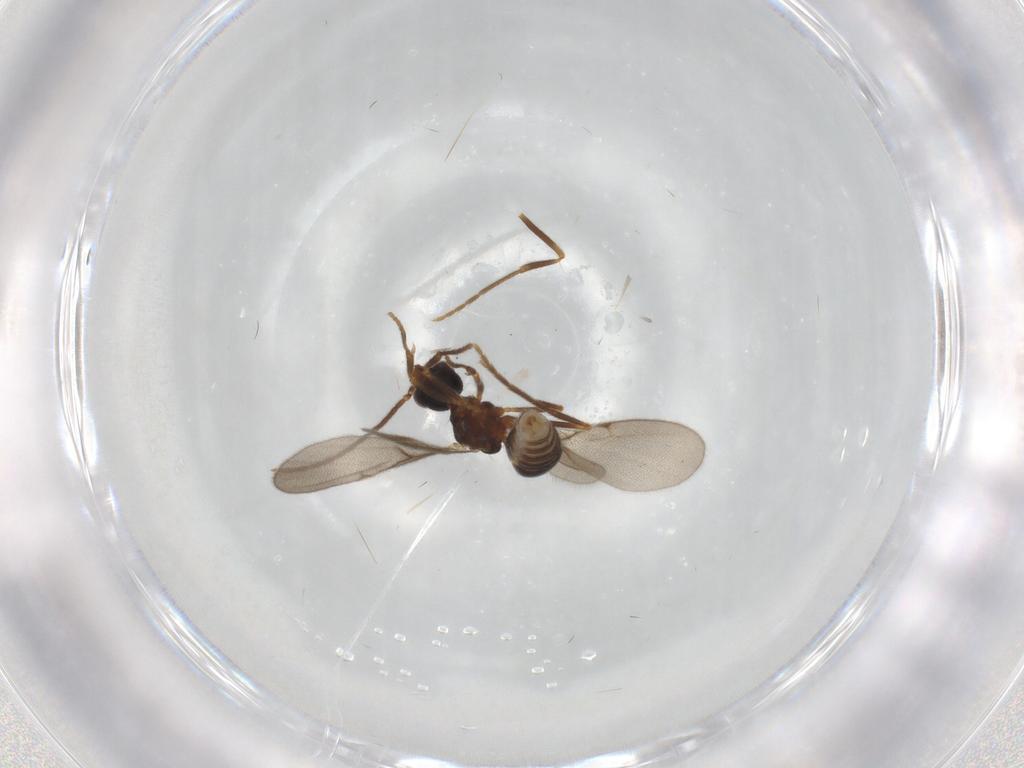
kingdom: Animalia
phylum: Arthropoda
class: Insecta
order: Hymenoptera
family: Formicidae
